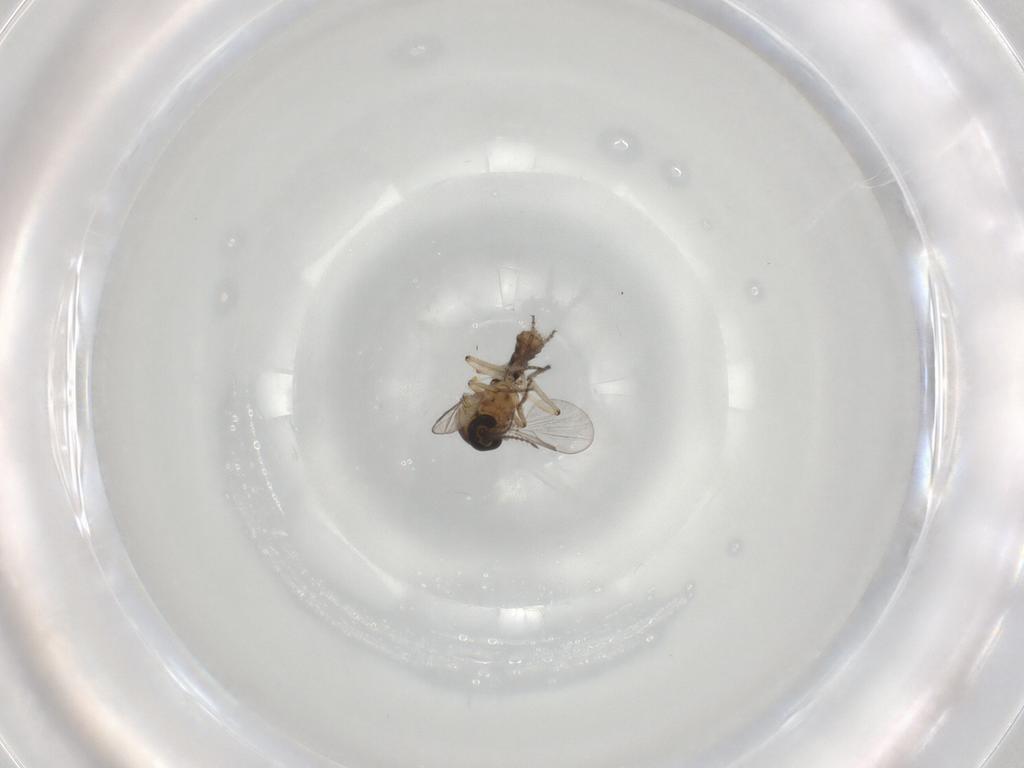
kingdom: Animalia
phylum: Arthropoda
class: Insecta
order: Diptera
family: Ceratopogonidae
